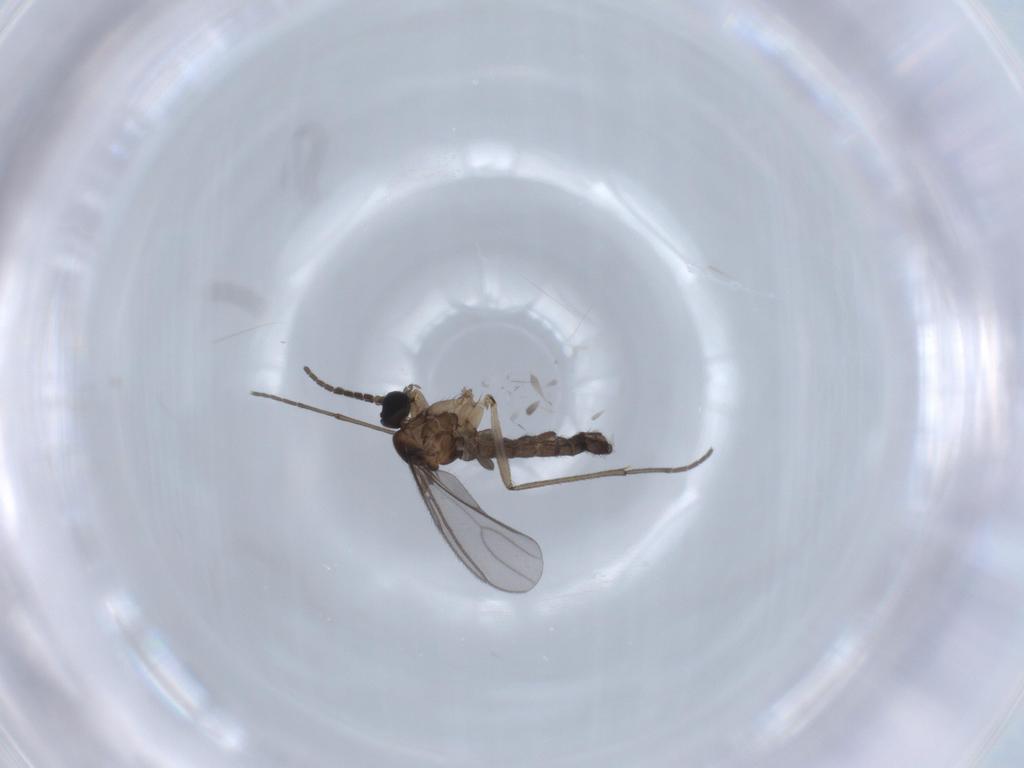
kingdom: Animalia
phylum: Arthropoda
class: Insecta
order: Diptera
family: Sciaridae
